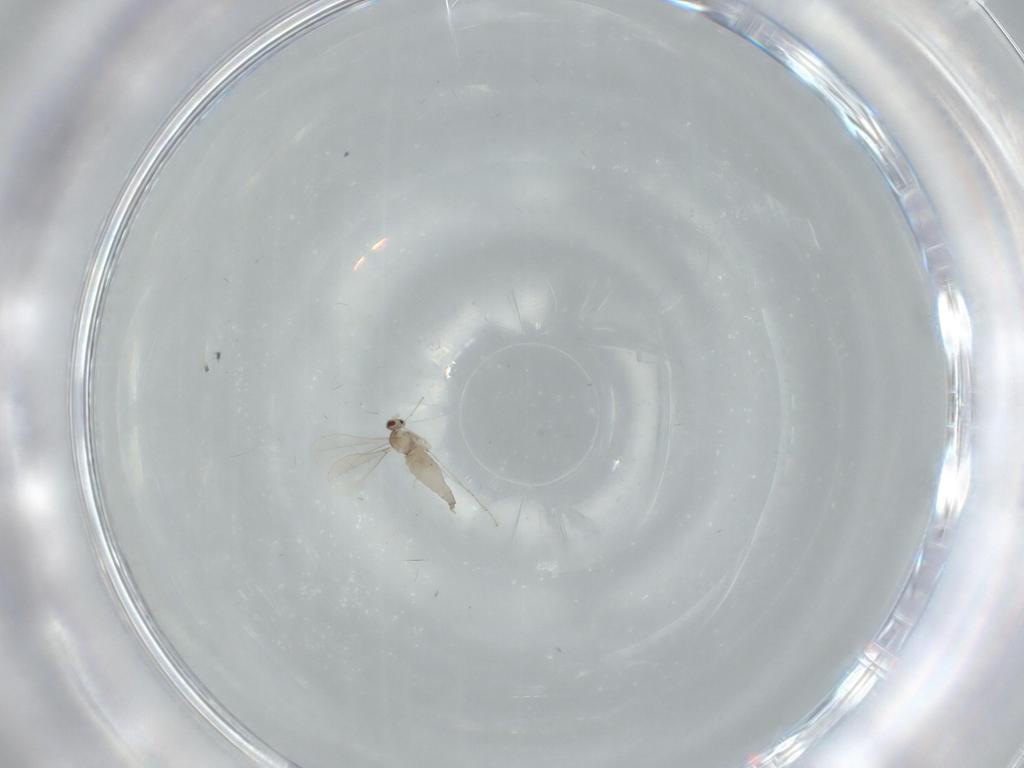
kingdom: Animalia
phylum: Arthropoda
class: Insecta
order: Diptera
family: Cecidomyiidae
